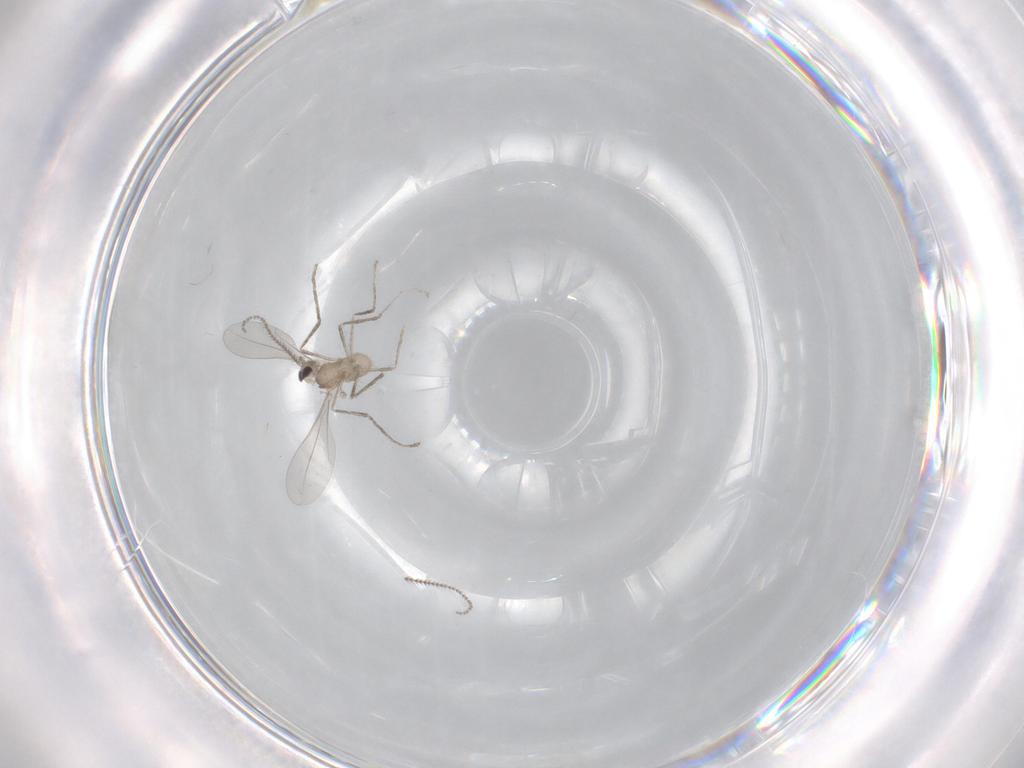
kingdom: Animalia
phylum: Arthropoda
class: Insecta
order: Diptera
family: Cecidomyiidae
